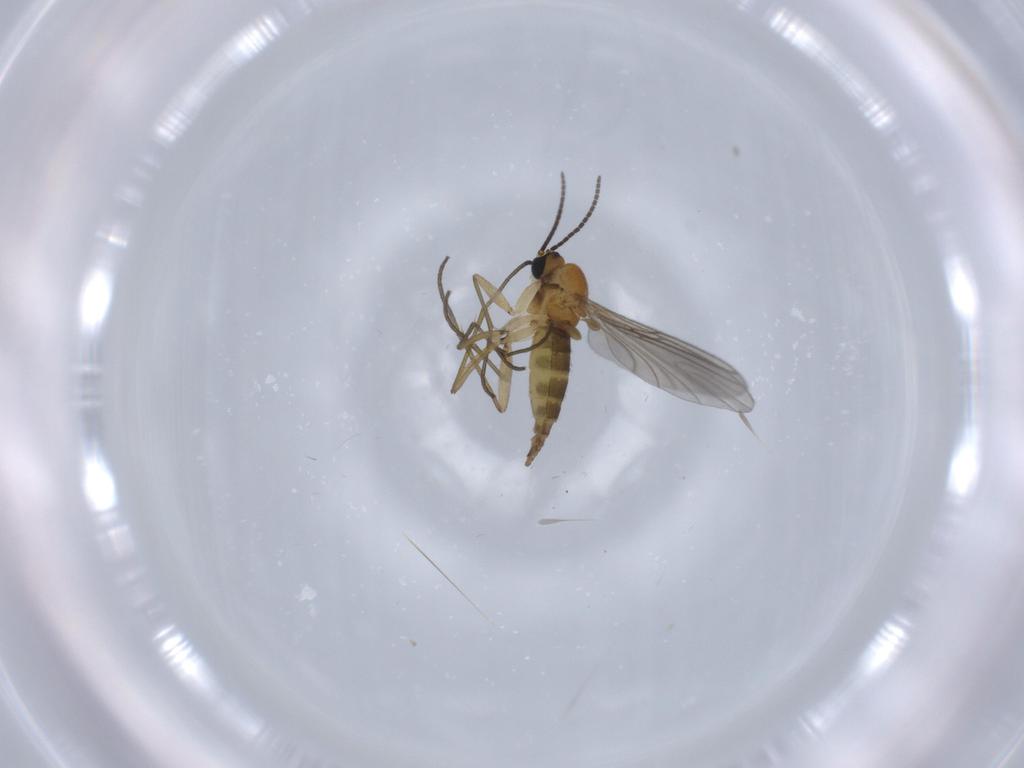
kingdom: Animalia
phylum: Arthropoda
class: Insecta
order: Diptera
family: Sciaridae
